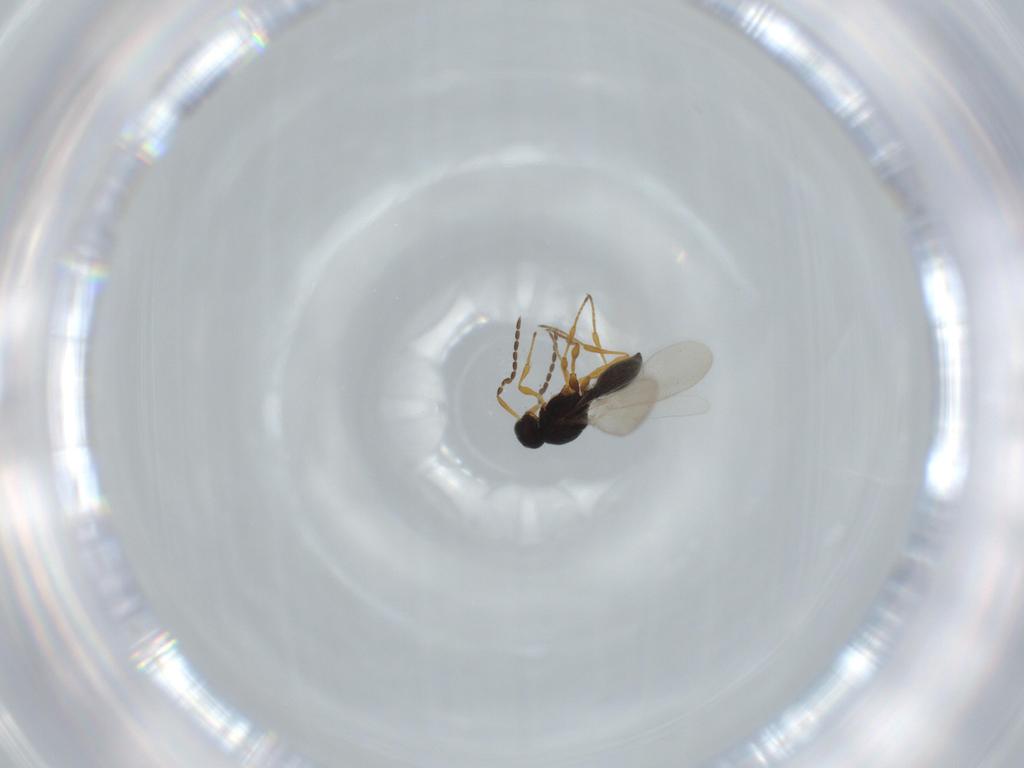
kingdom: Animalia
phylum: Arthropoda
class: Insecta
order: Diptera
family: Mythicomyiidae
